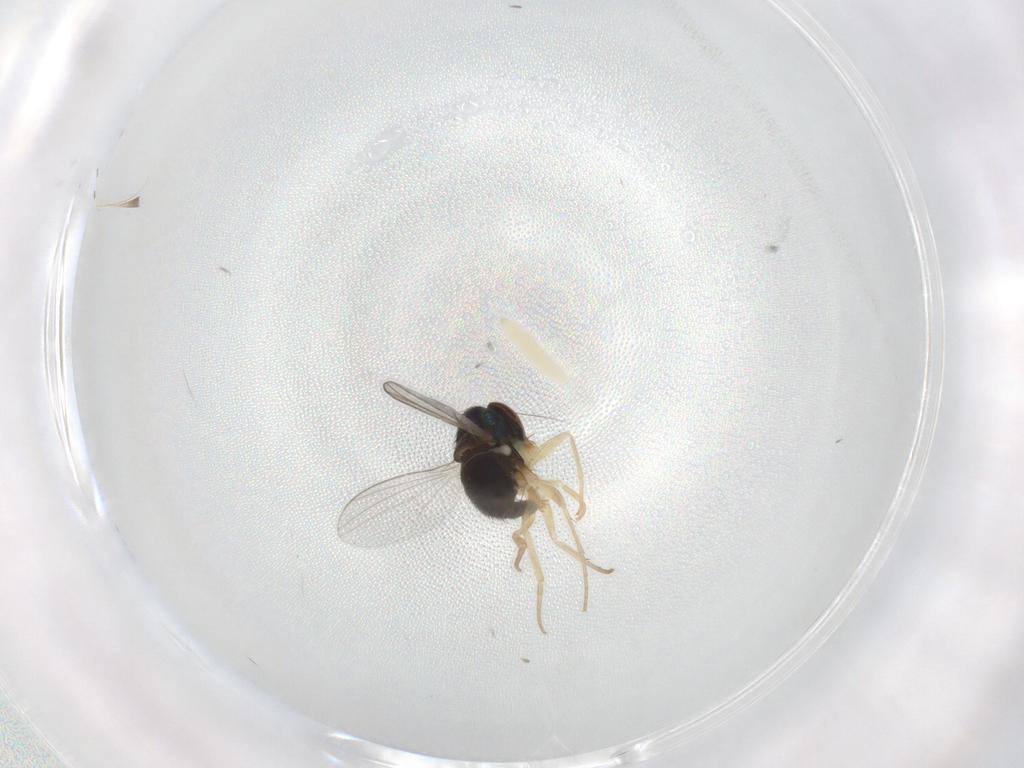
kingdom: Animalia
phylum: Arthropoda
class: Insecta
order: Diptera
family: Dolichopodidae
